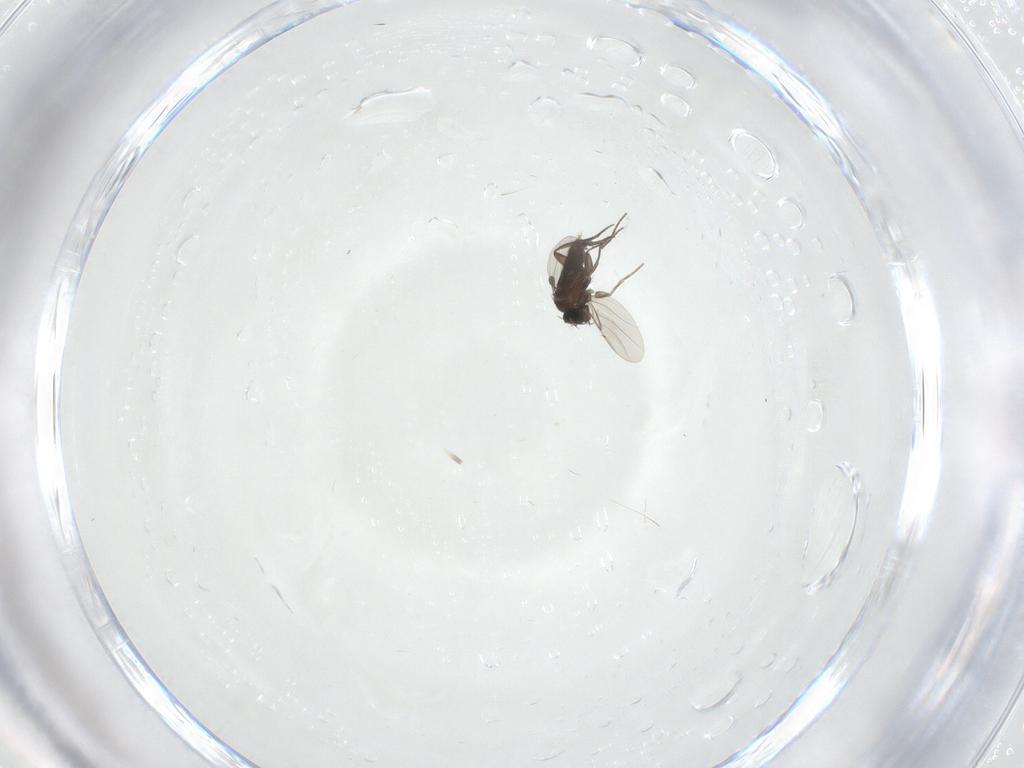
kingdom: Animalia
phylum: Arthropoda
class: Insecta
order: Diptera
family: Phoridae
